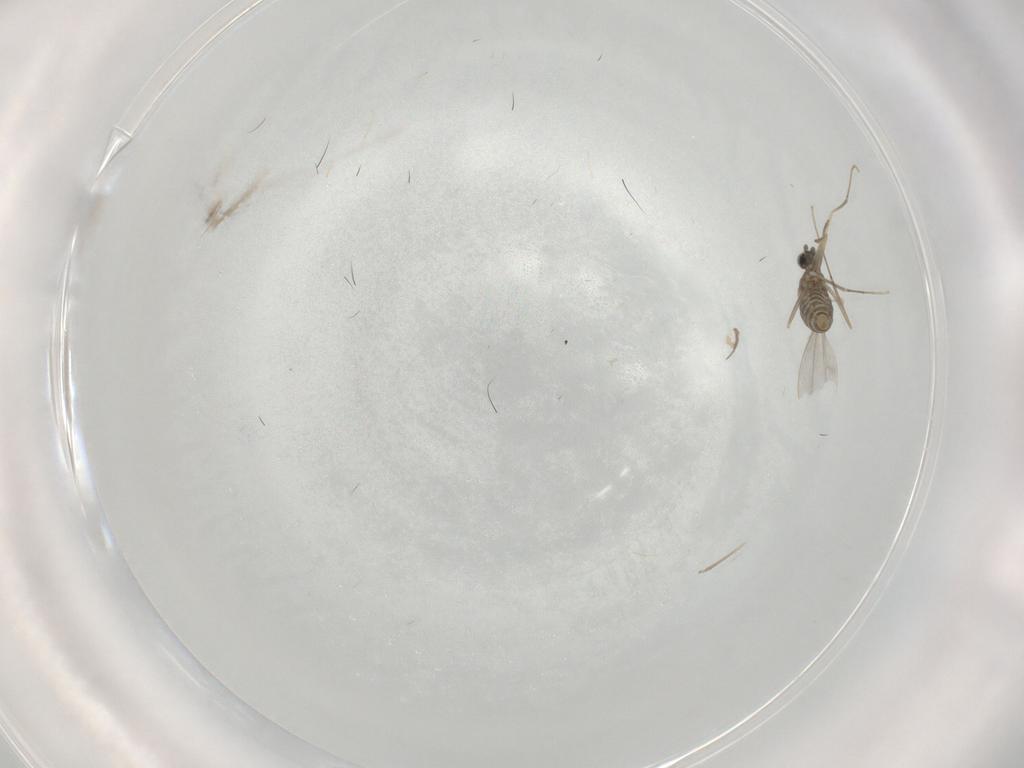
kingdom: Animalia
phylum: Arthropoda
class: Insecta
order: Diptera
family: Cecidomyiidae
